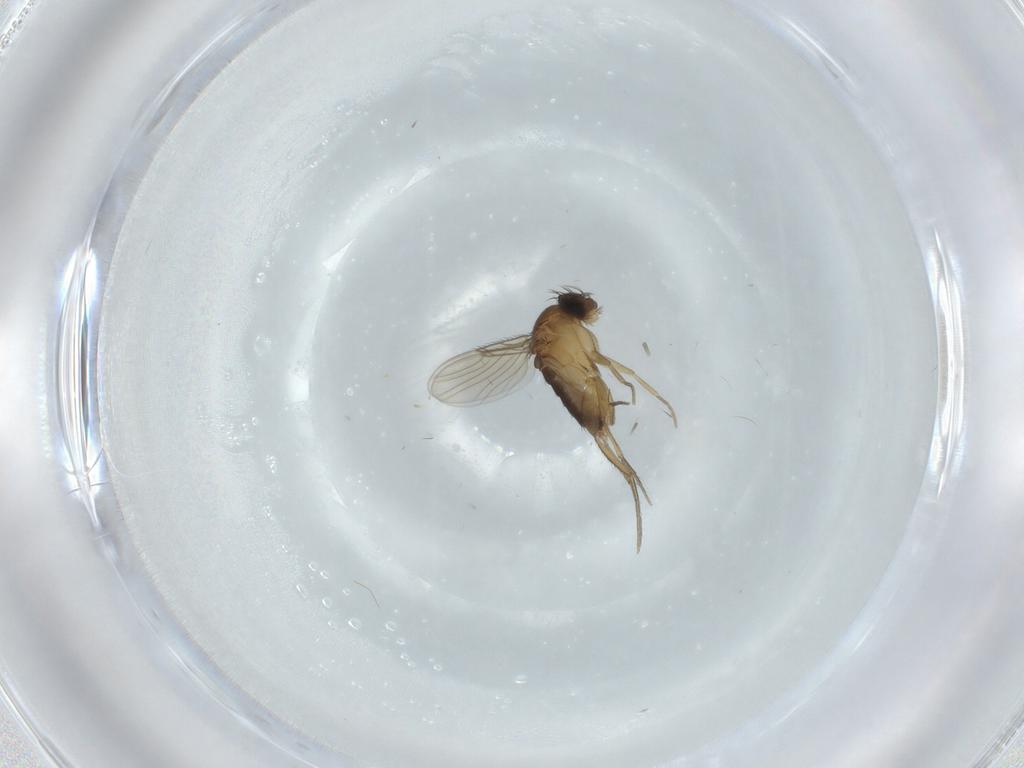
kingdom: Animalia
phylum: Arthropoda
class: Insecta
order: Diptera
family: Phoridae
